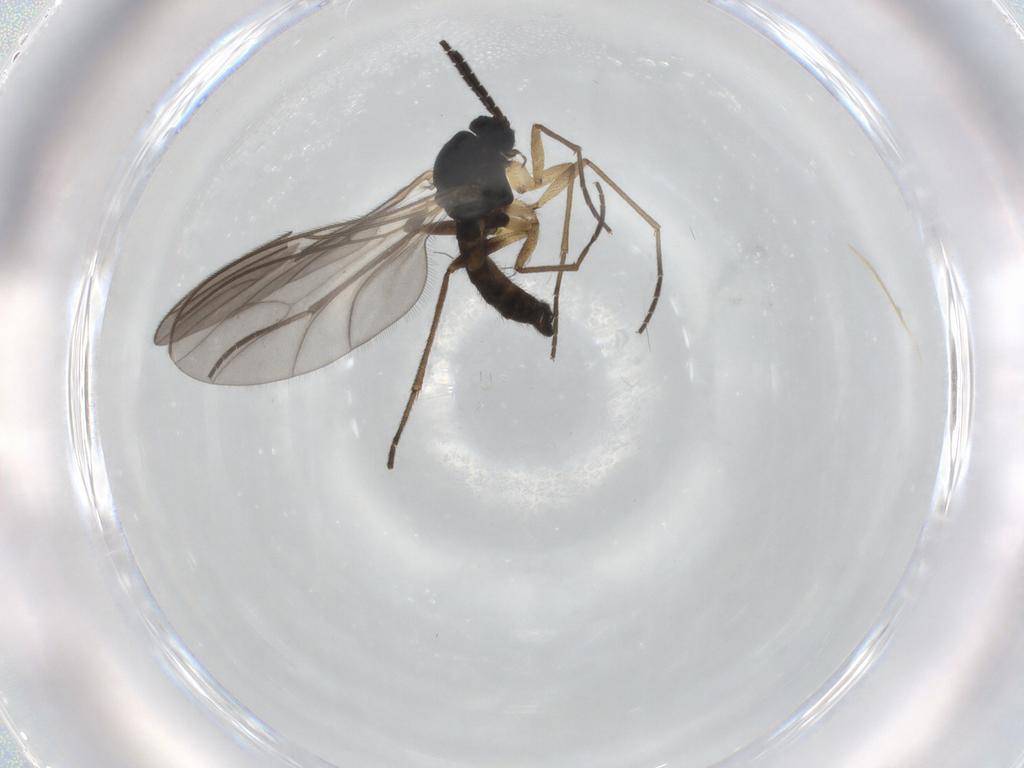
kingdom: Animalia
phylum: Arthropoda
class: Insecta
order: Diptera
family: Sciaridae
